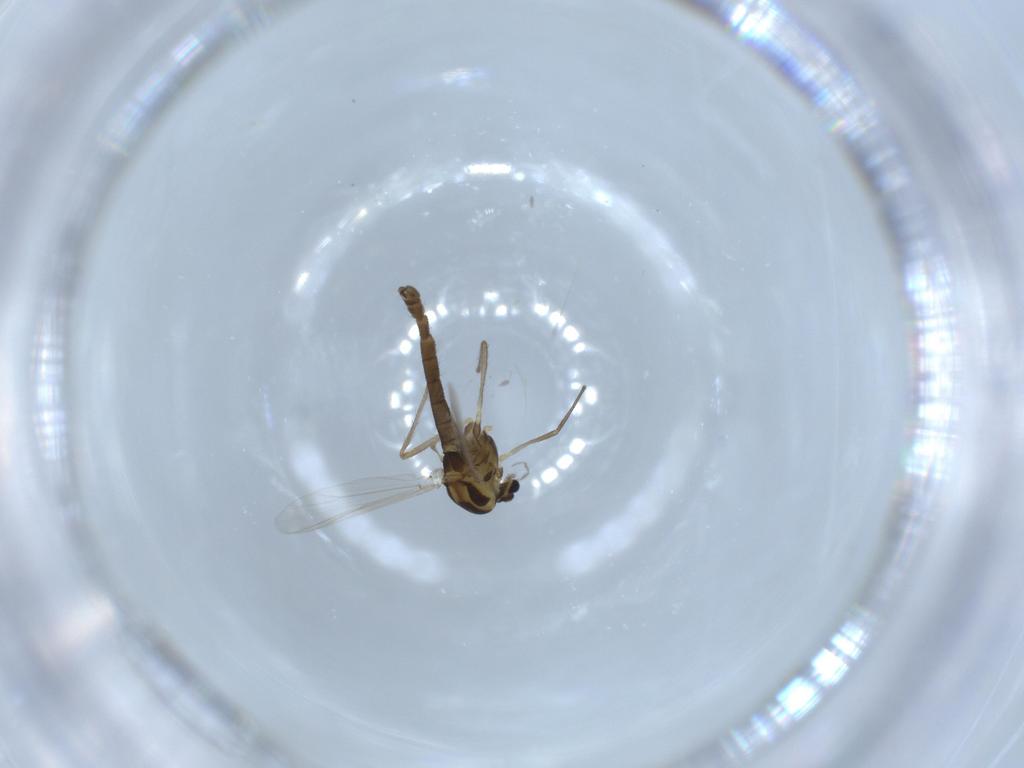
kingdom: Animalia
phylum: Arthropoda
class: Insecta
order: Diptera
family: Chironomidae
